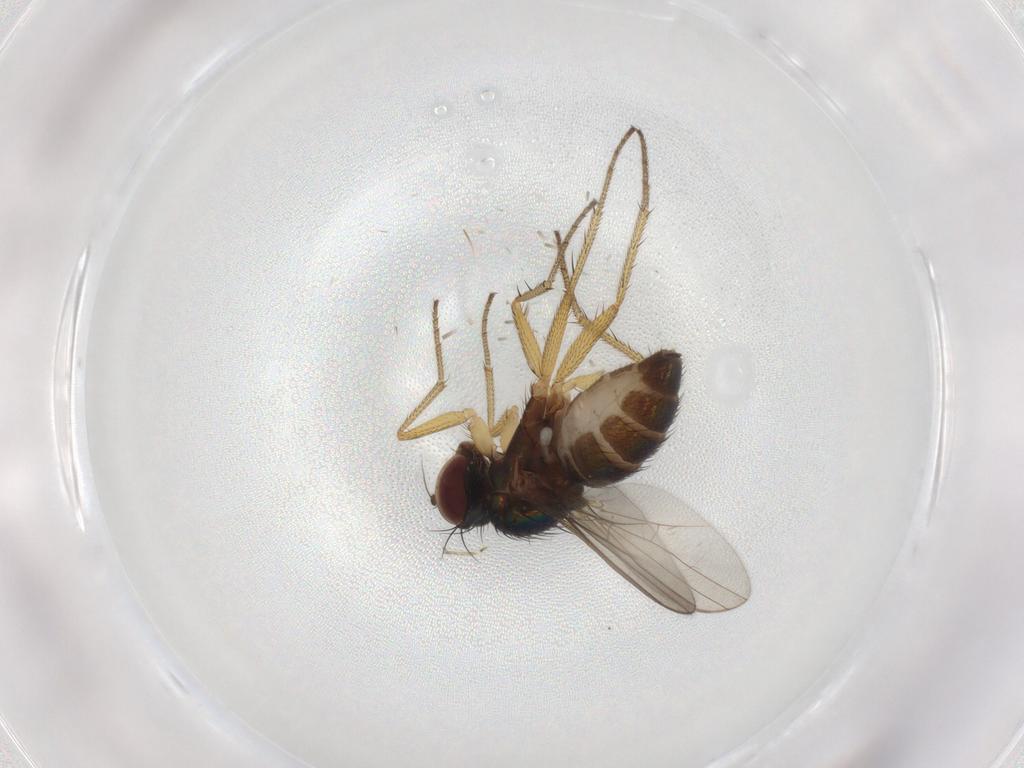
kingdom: Animalia
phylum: Arthropoda
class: Insecta
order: Diptera
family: Dolichopodidae
